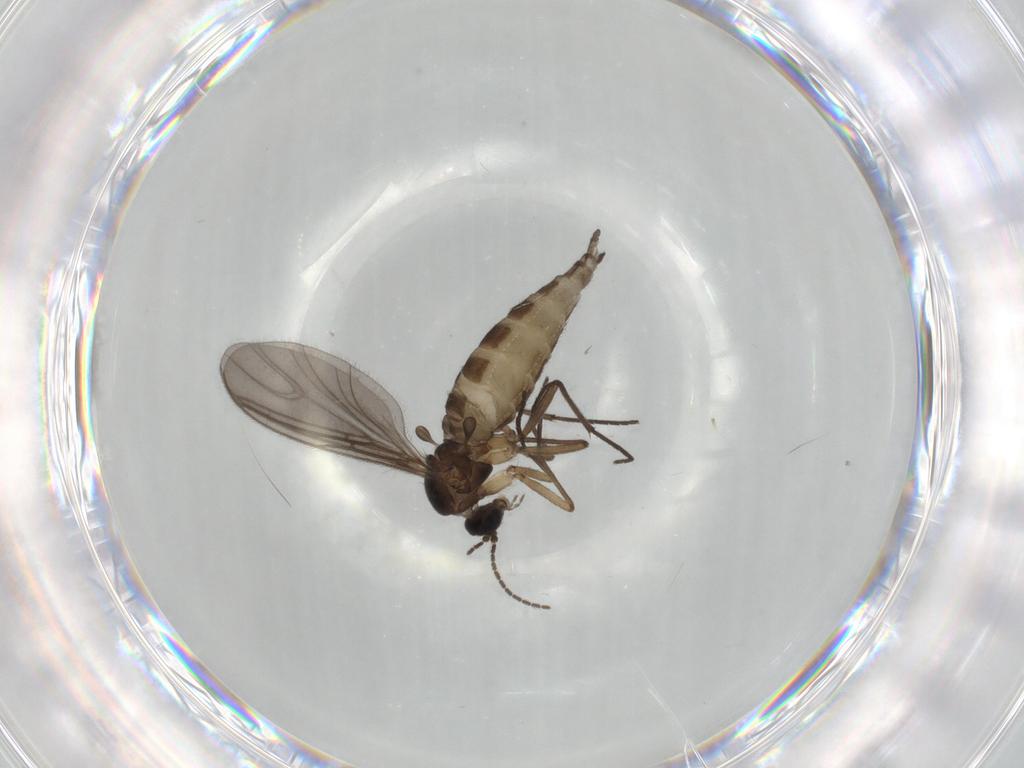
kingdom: Animalia
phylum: Arthropoda
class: Insecta
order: Diptera
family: Sciaridae
